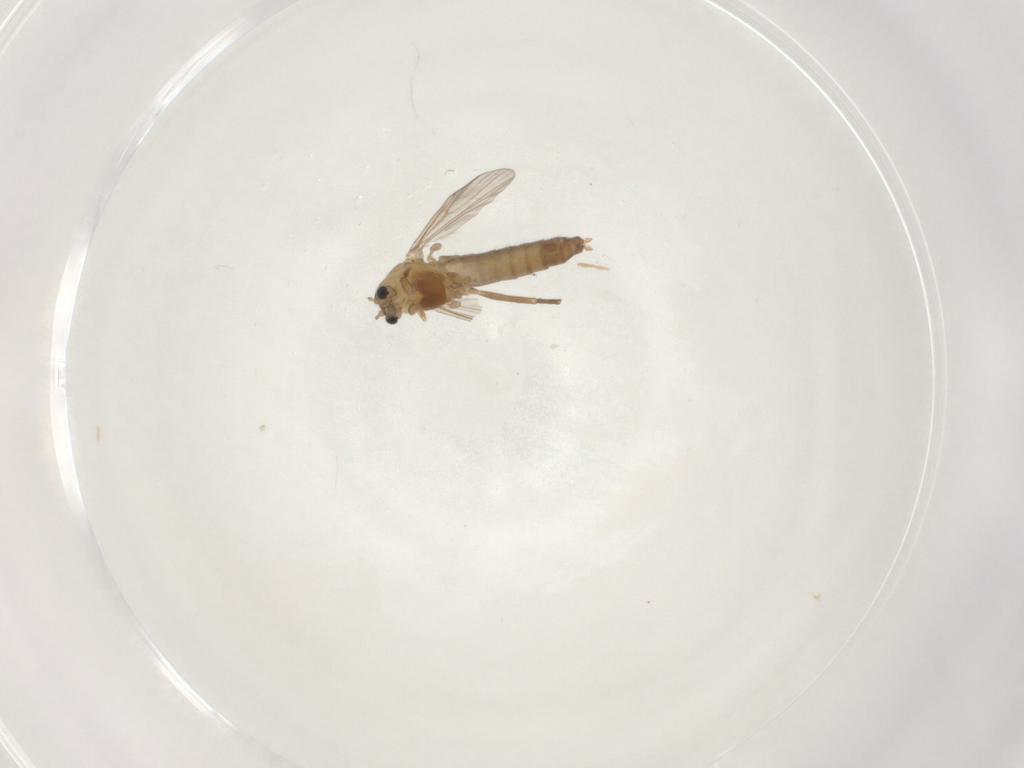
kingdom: Animalia
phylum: Arthropoda
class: Insecta
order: Diptera
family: Chironomidae
